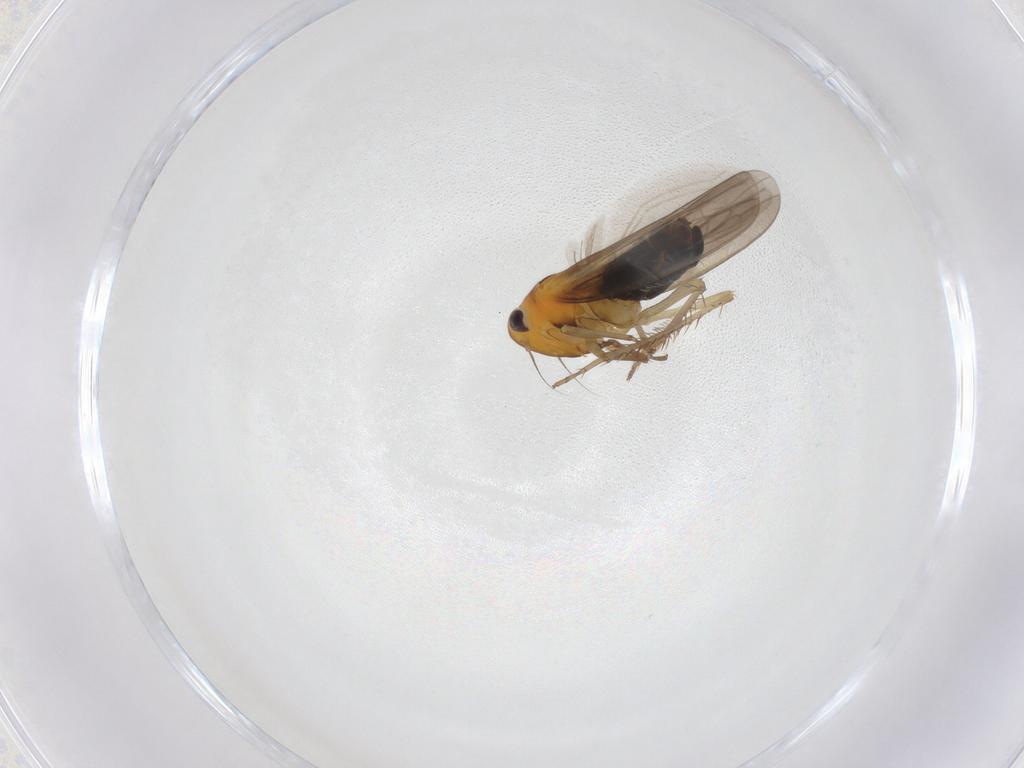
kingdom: Animalia
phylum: Arthropoda
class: Insecta
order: Hemiptera
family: Cicadellidae
